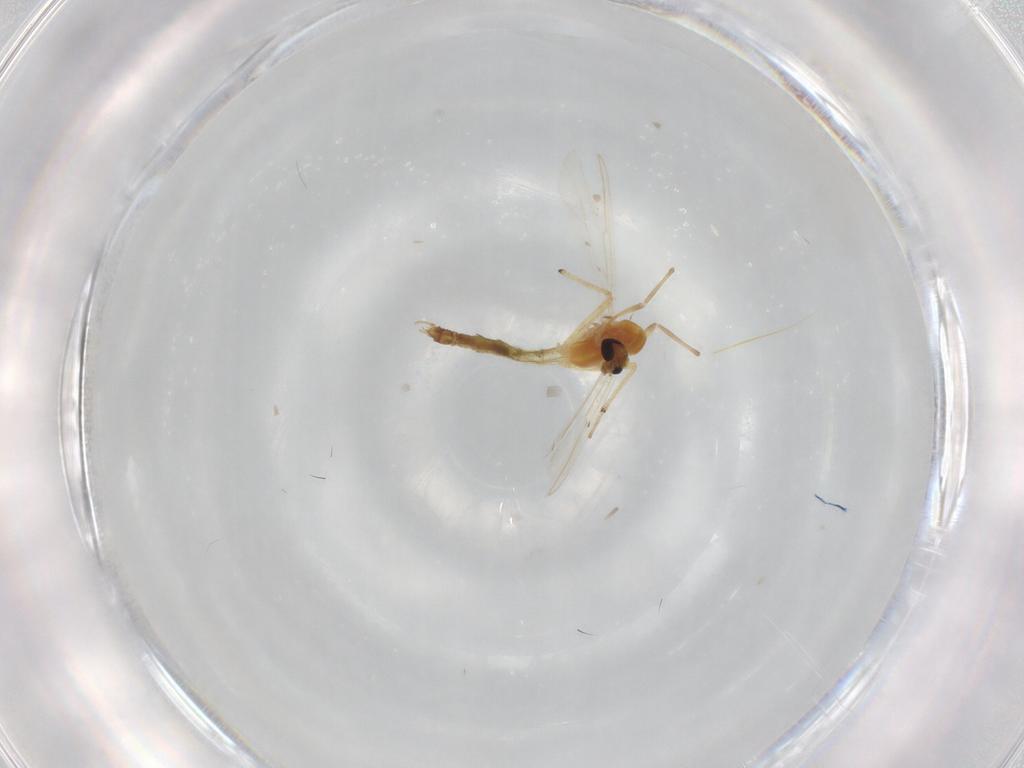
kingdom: Animalia
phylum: Arthropoda
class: Insecta
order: Diptera
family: Chironomidae
